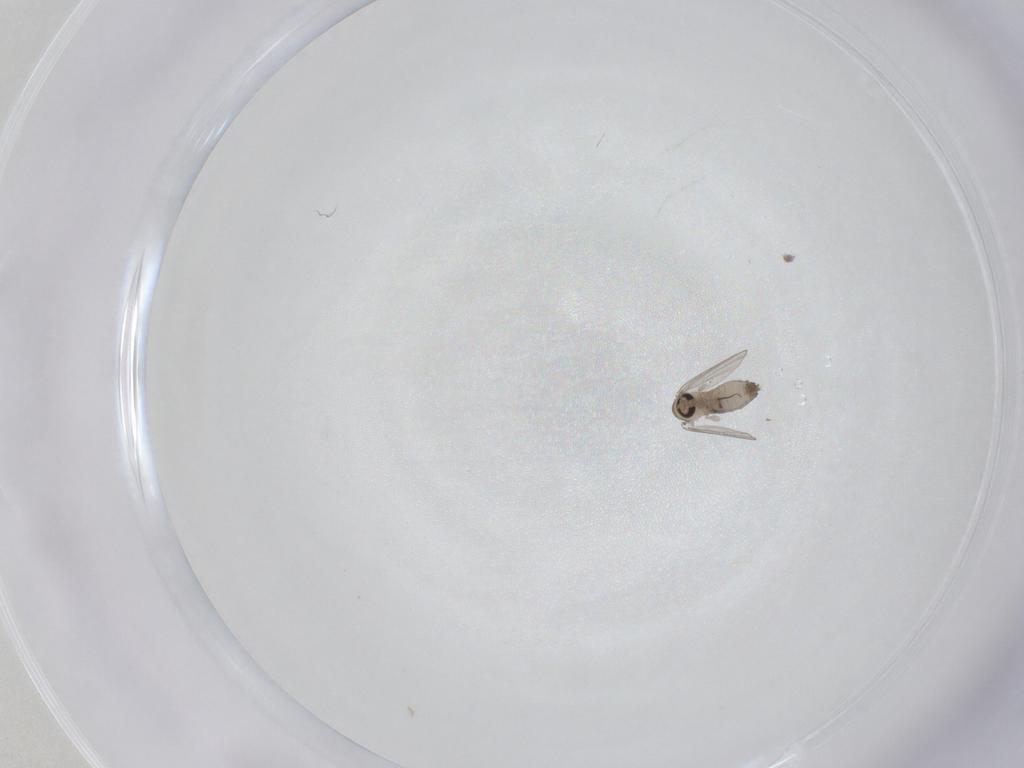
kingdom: Animalia
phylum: Arthropoda
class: Insecta
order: Diptera
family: Psychodidae
